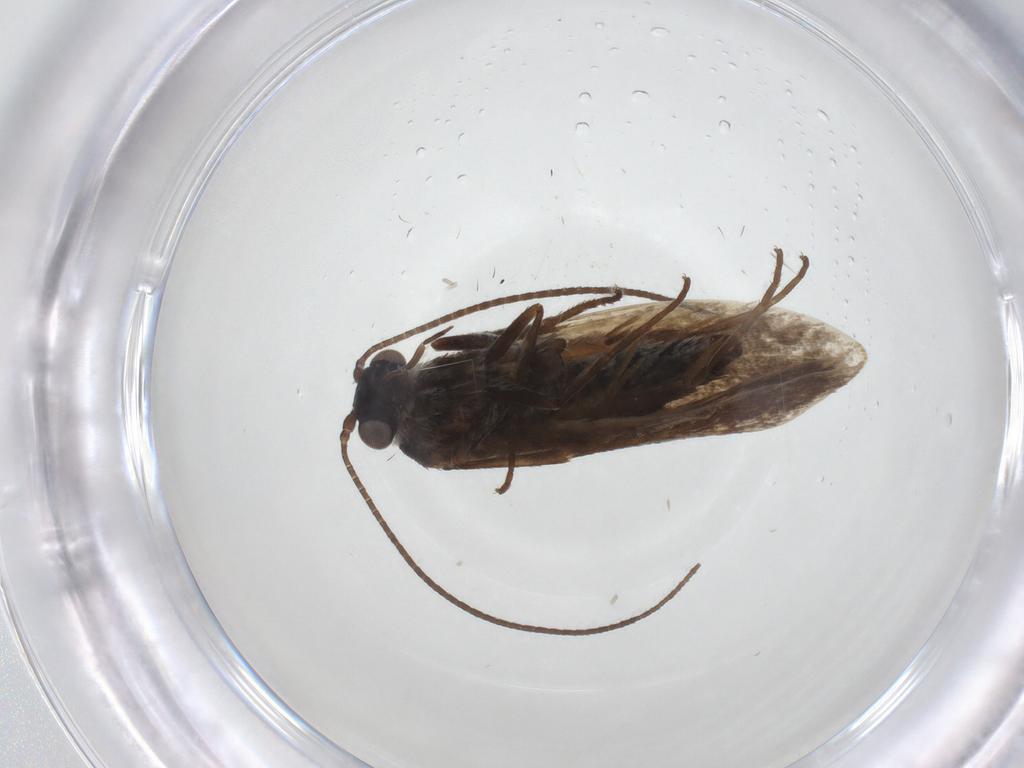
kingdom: Animalia
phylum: Arthropoda
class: Insecta
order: Lepidoptera
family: Adelidae
